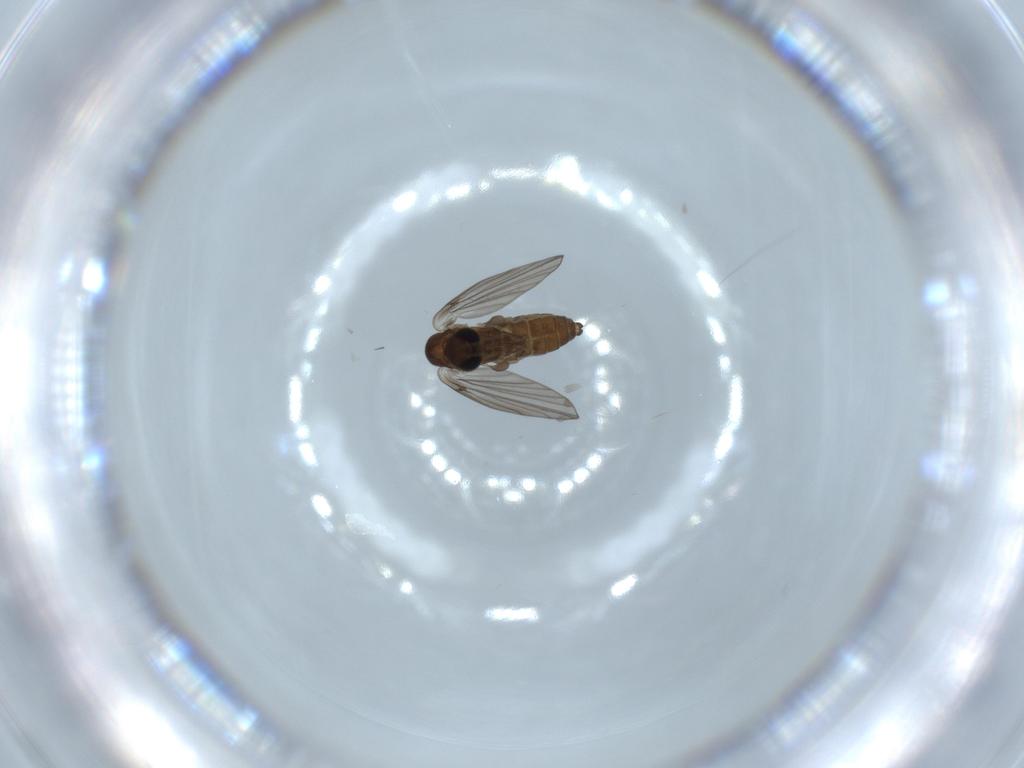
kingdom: Animalia
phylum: Arthropoda
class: Insecta
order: Diptera
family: Psychodidae
